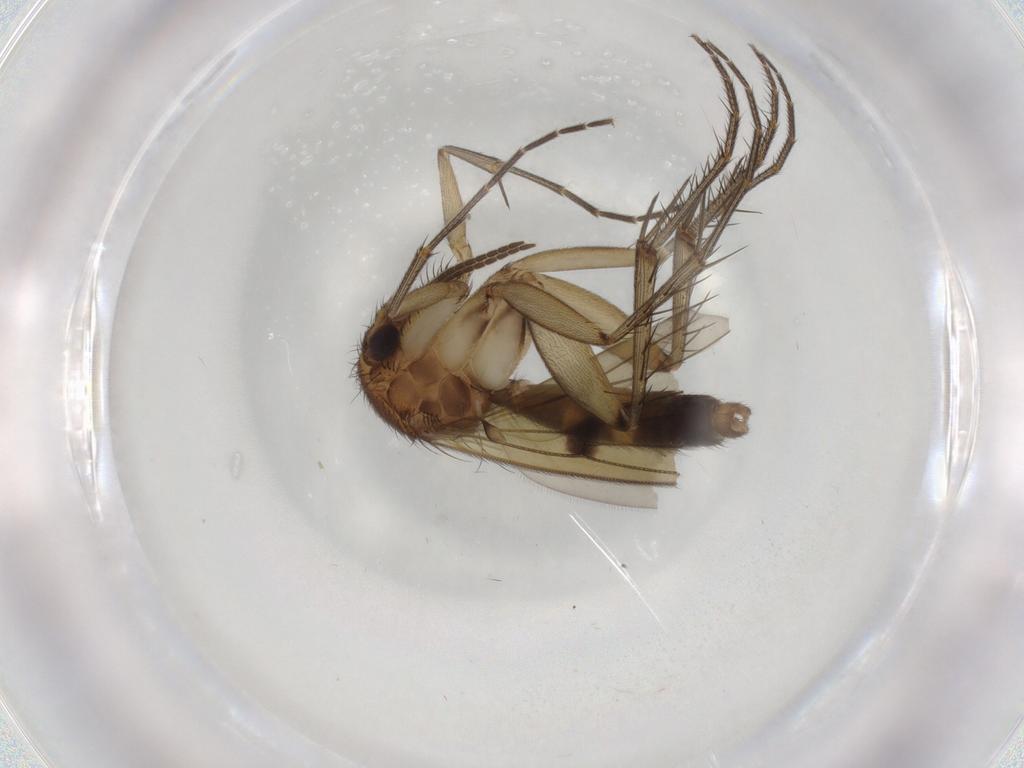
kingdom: Animalia
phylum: Arthropoda
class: Insecta
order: Diptera
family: Mycetophilidae
